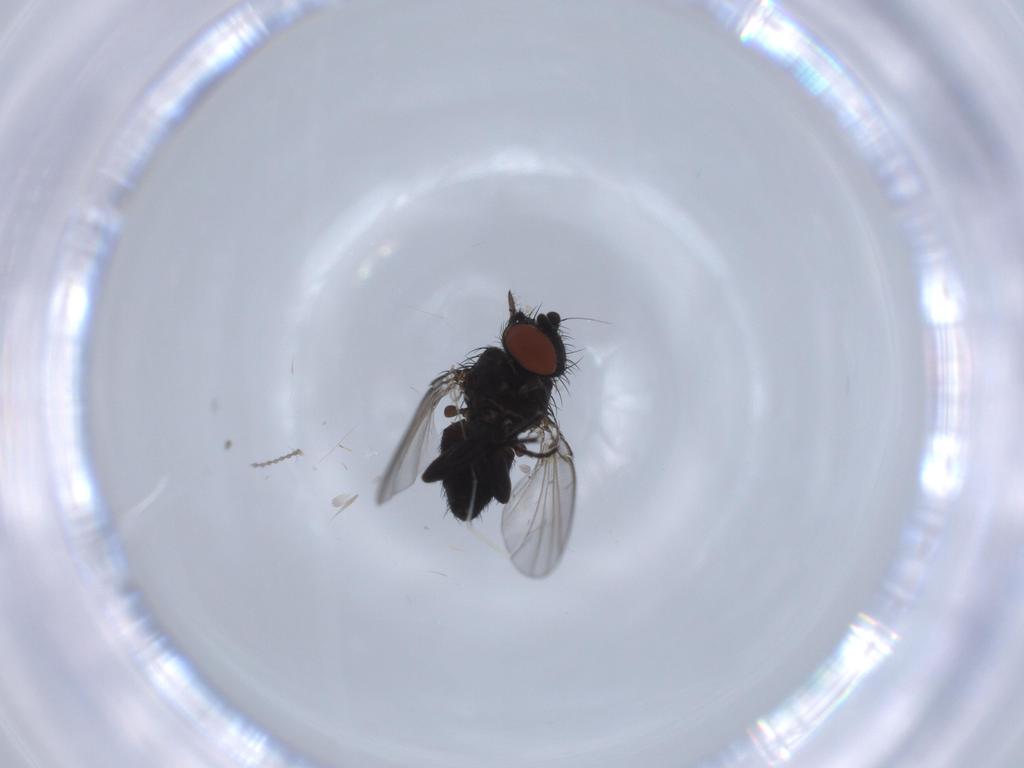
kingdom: Animalia
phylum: Arthropoda
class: Insecta
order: Diptera
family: Milichiidae
